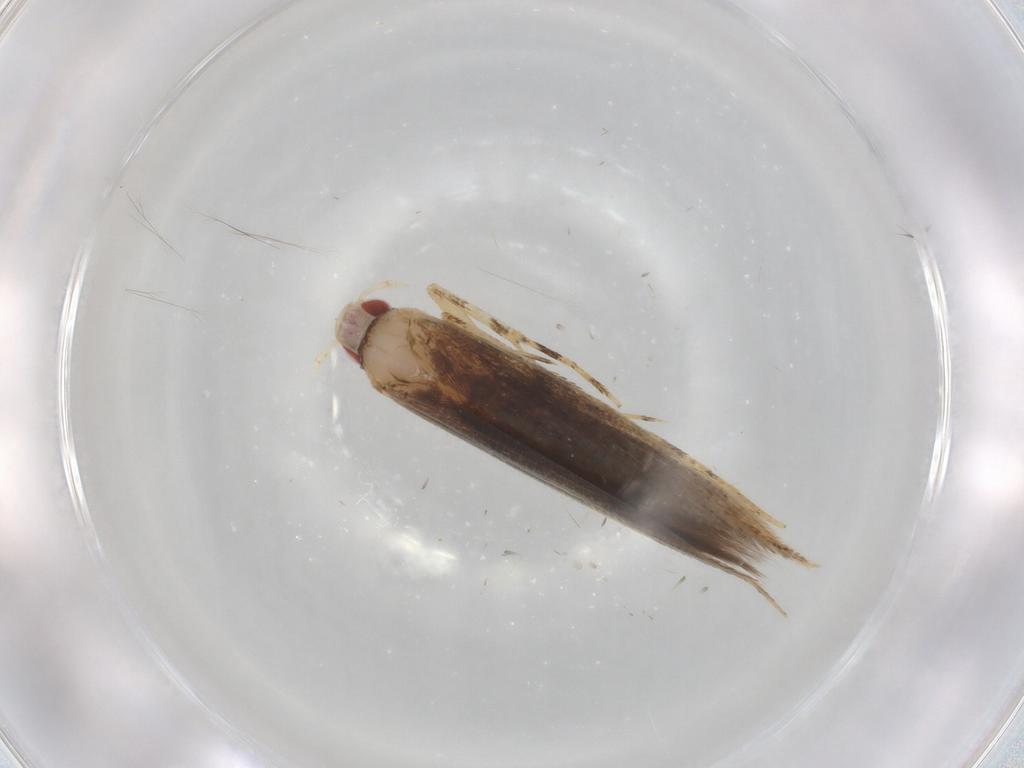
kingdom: Animalia
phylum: Arthropoda
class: Insecta
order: Lepidoptera
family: Cosmopterigidae
